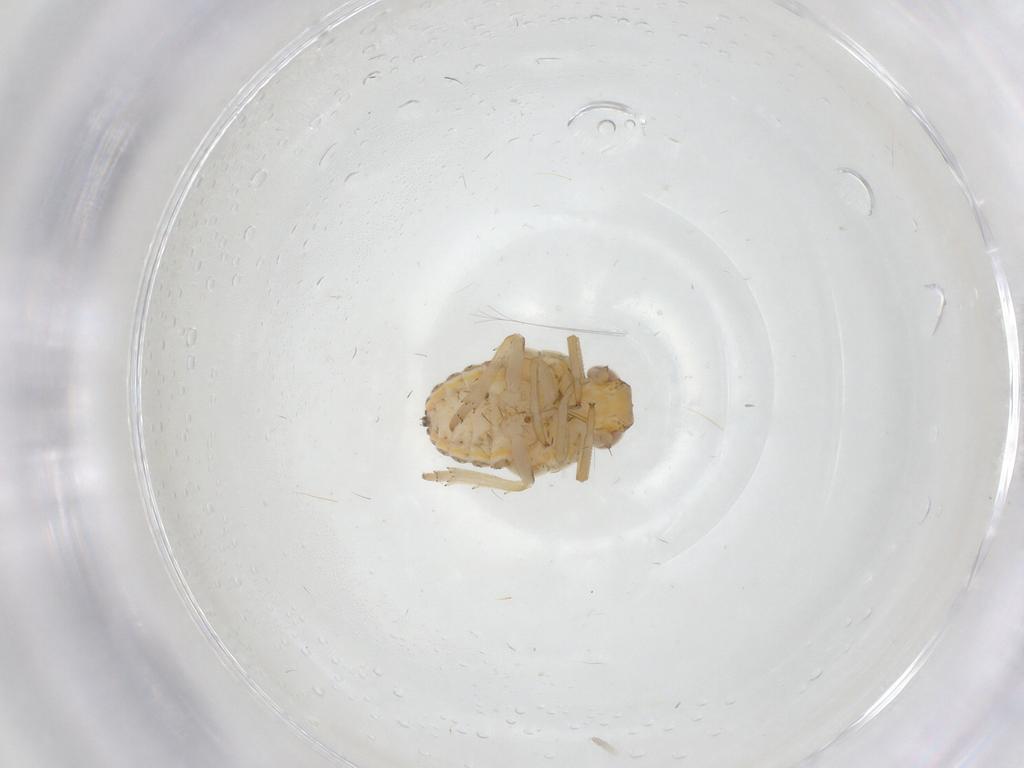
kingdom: Animalia
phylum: Arthropoda
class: Insecta
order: Hemiptera
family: Issidae
